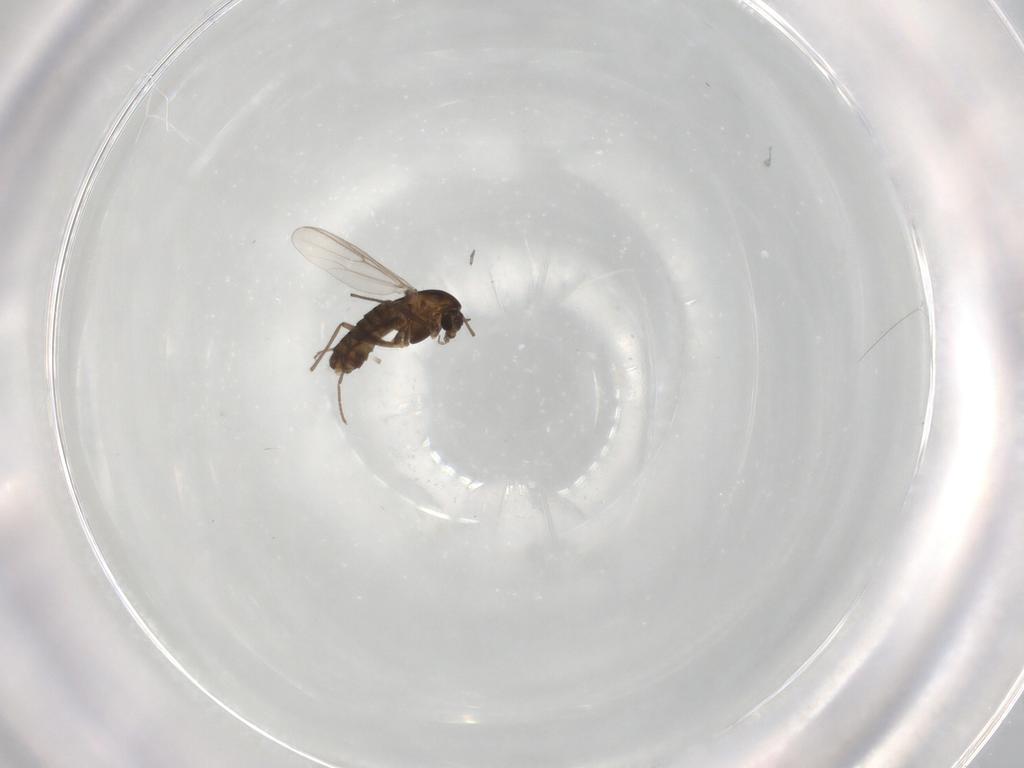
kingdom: Animalia
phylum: Arthropoda
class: Insecta
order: Diptera
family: Chironomidae
